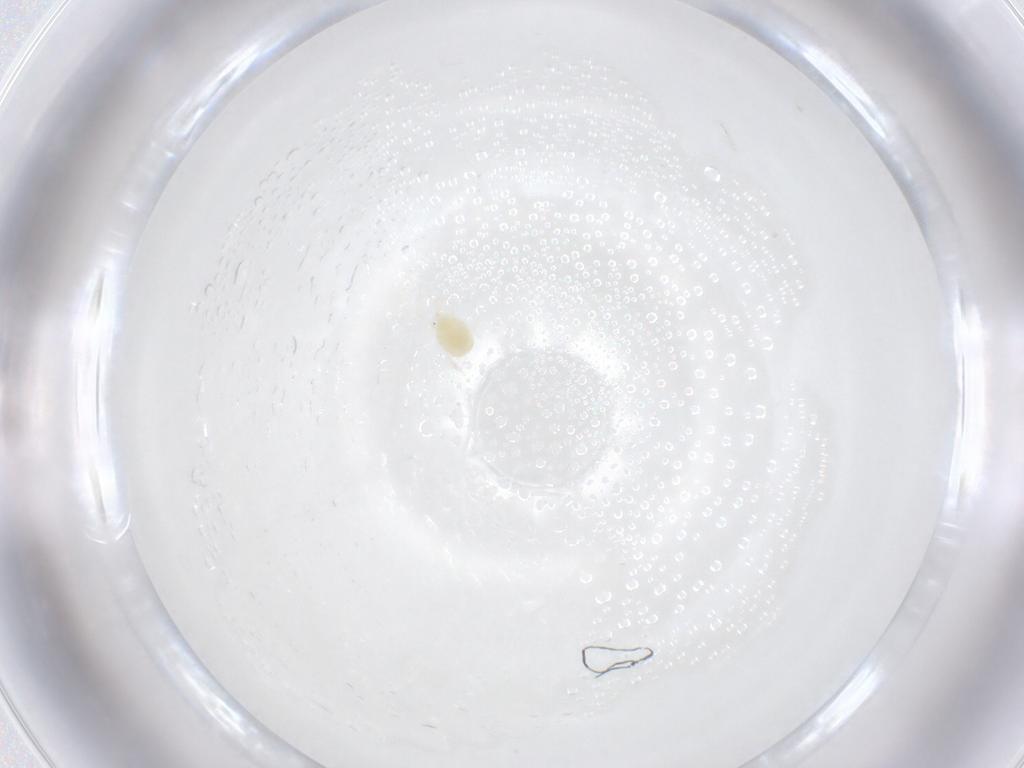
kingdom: Animalia
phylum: Arthropoda
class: Arachnida
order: Trombidiformes
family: Tetranychidae
